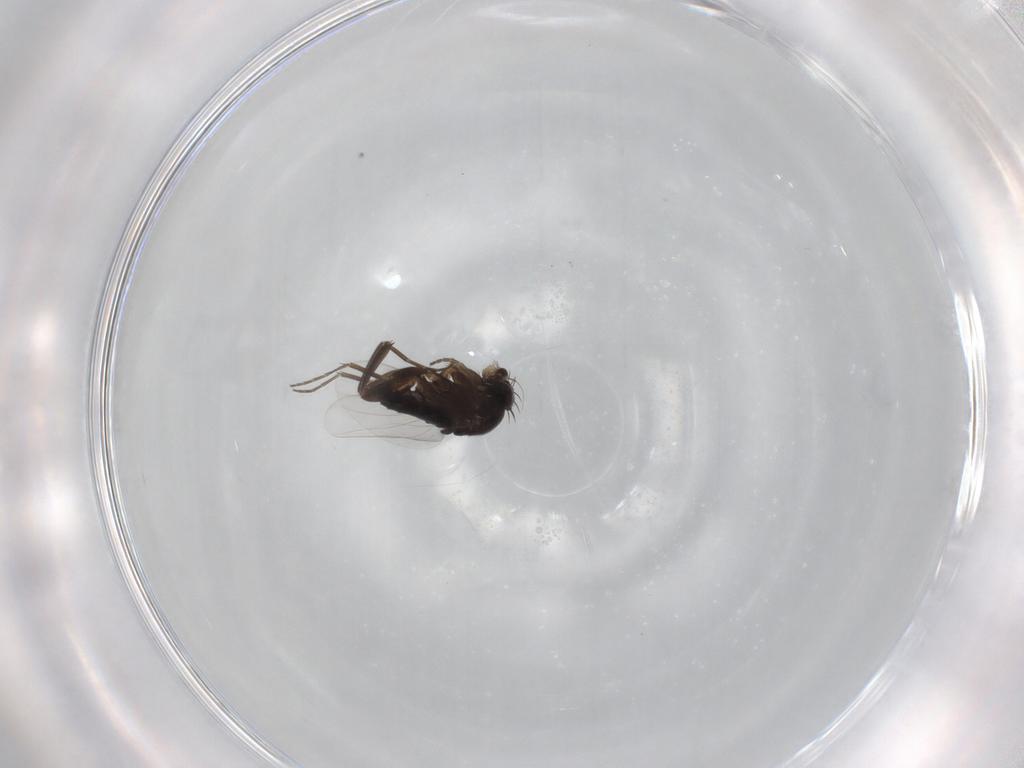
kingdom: Animalia
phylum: Arthropoda
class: Insecta
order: Diptera
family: Phoridae
